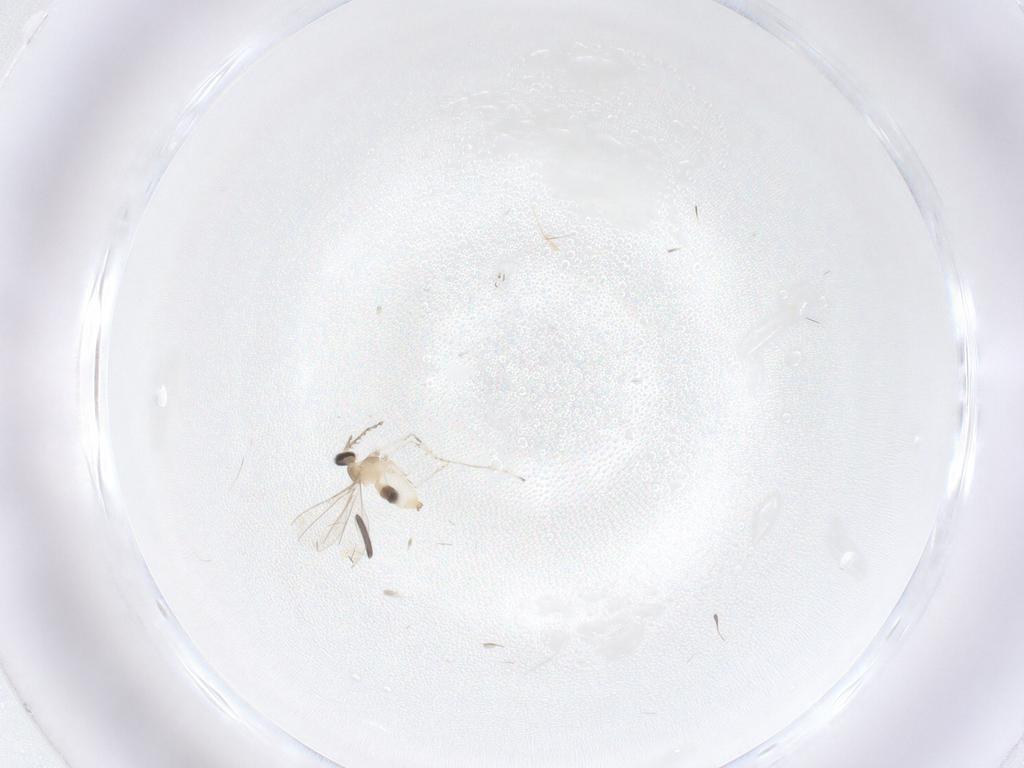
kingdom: Animalia
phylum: Arthropoda
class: Insecta
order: Diptera
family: Cecidomyiidae
